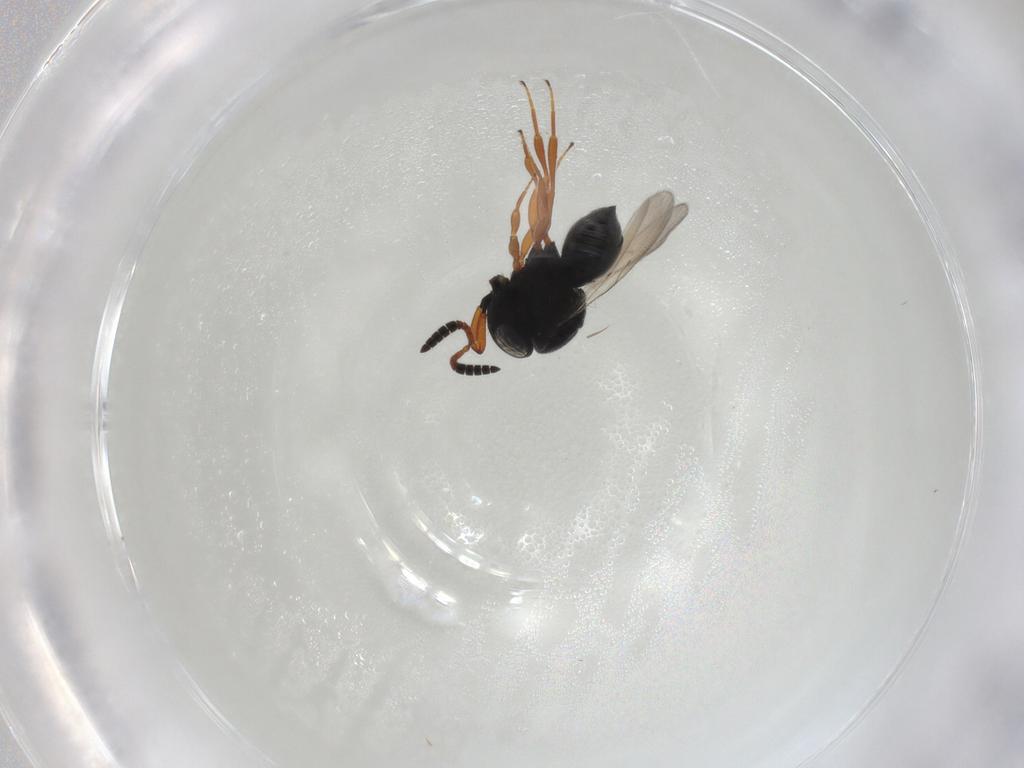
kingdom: Animalia
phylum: Arthropoda
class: Insecta
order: Hymenoptera
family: Scelionidae
